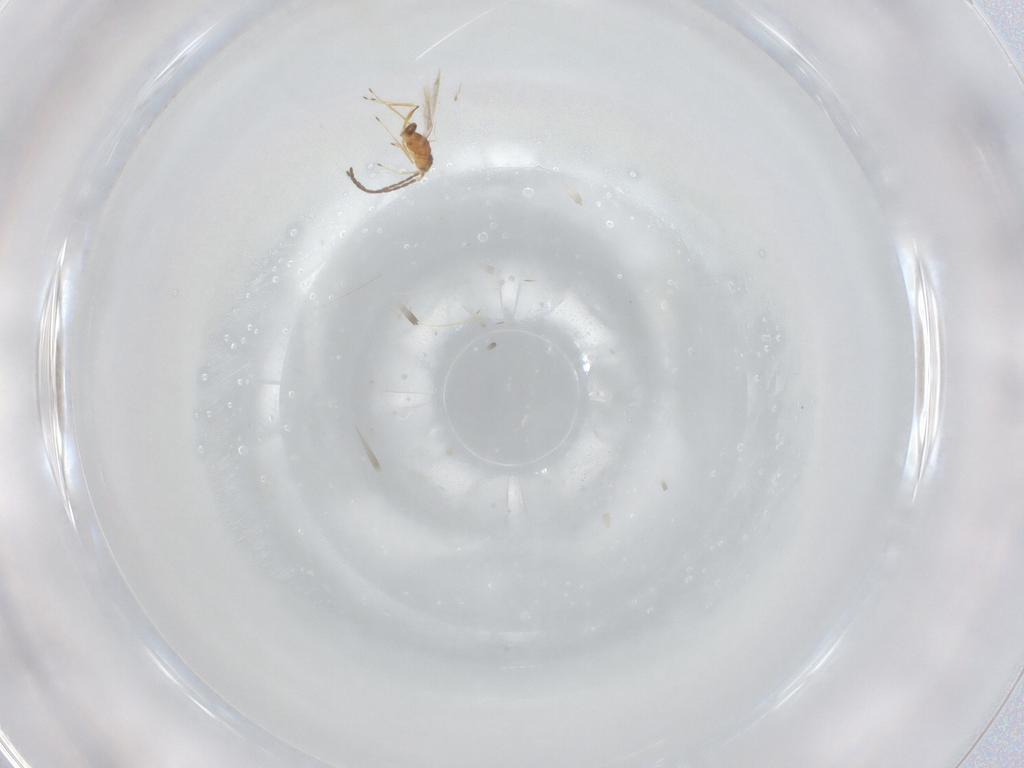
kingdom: Animalia
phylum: Arthropoda
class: Insecta
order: Hymenoptera
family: Mymaridae
